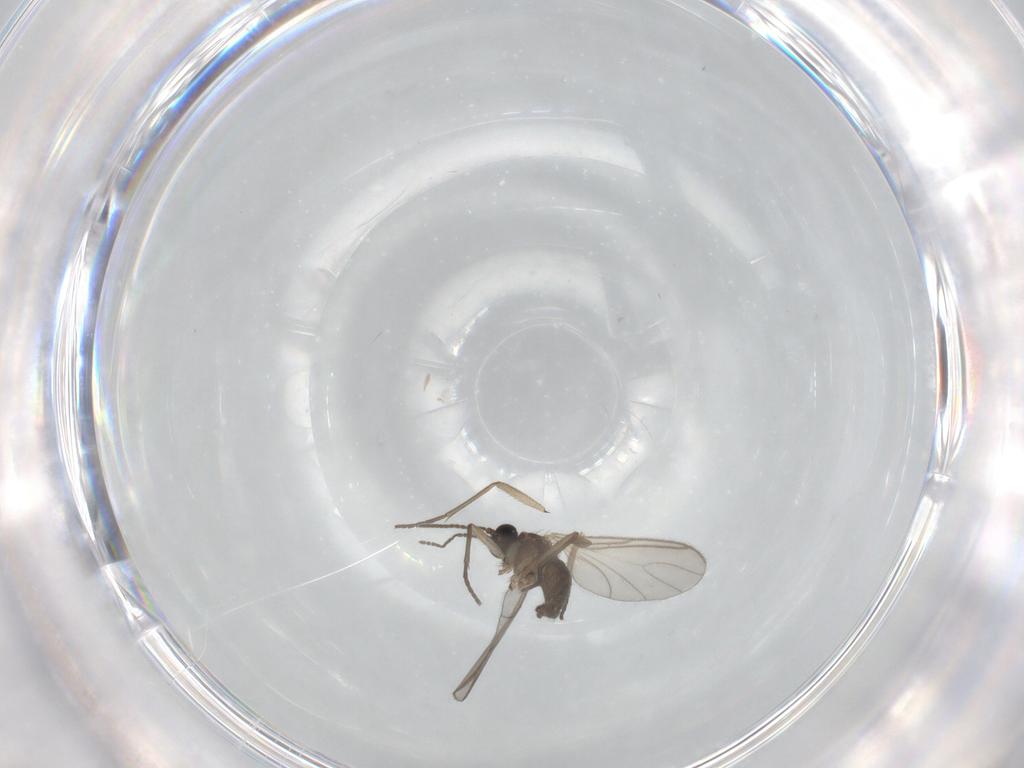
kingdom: Animalia
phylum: Arthropoda
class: Insecta
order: Diptera
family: Sciaridae
